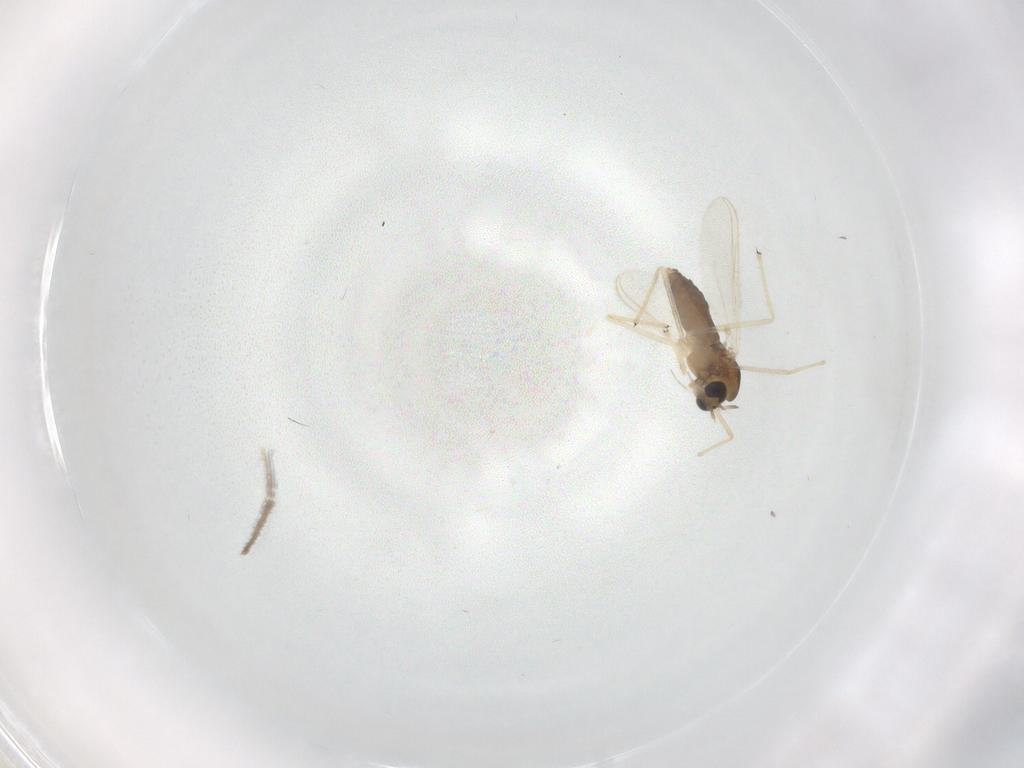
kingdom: Animalia
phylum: Arthropoda
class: Insecta
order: Diptera
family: Chironomidae
